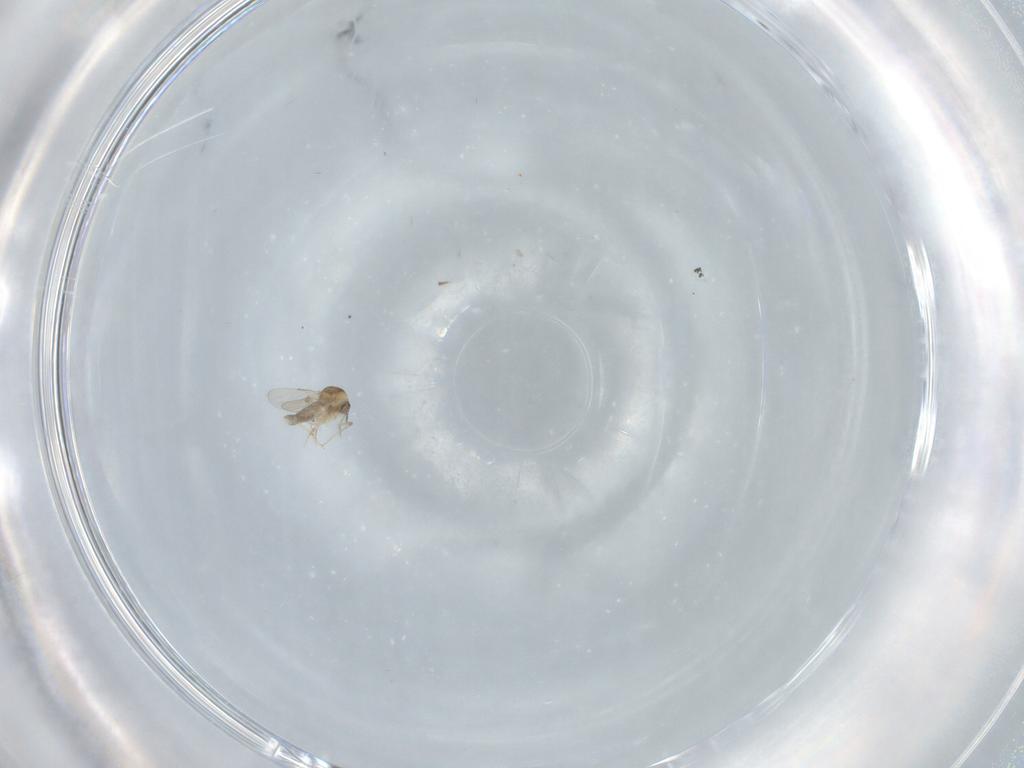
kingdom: Animalia
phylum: Arthropoda
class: Insecta
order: Diptera
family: Ceratopogonidae
